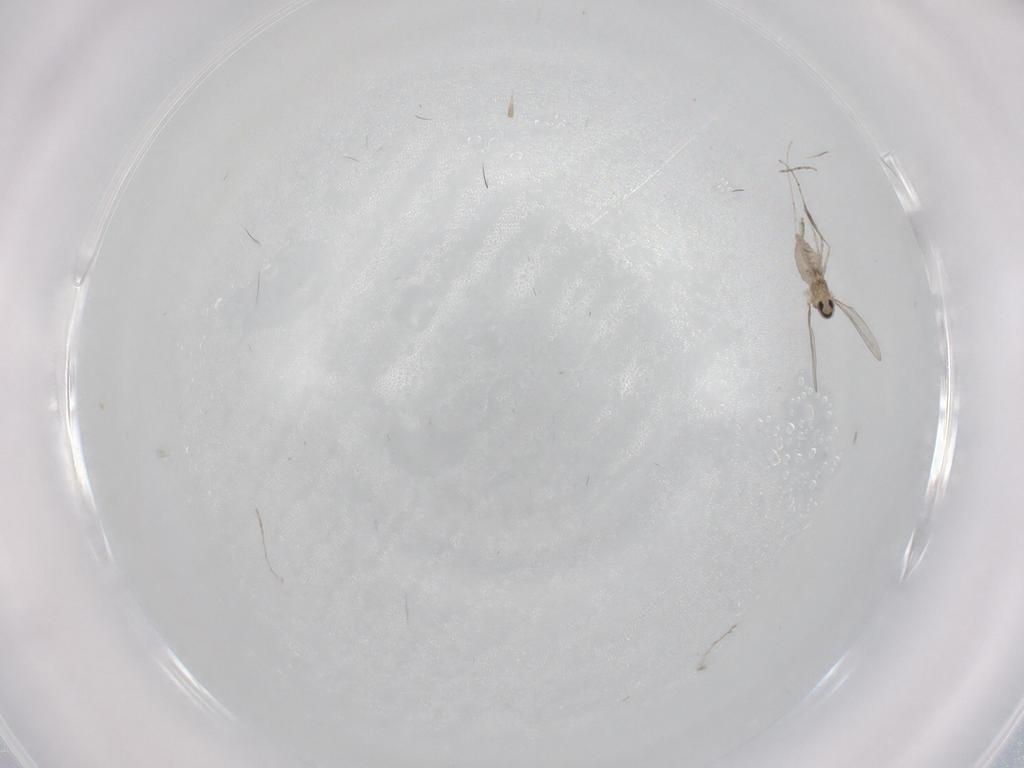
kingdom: Animalia
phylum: Arthropoda
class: Insecta
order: Diptera
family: Cecidomyiidae
